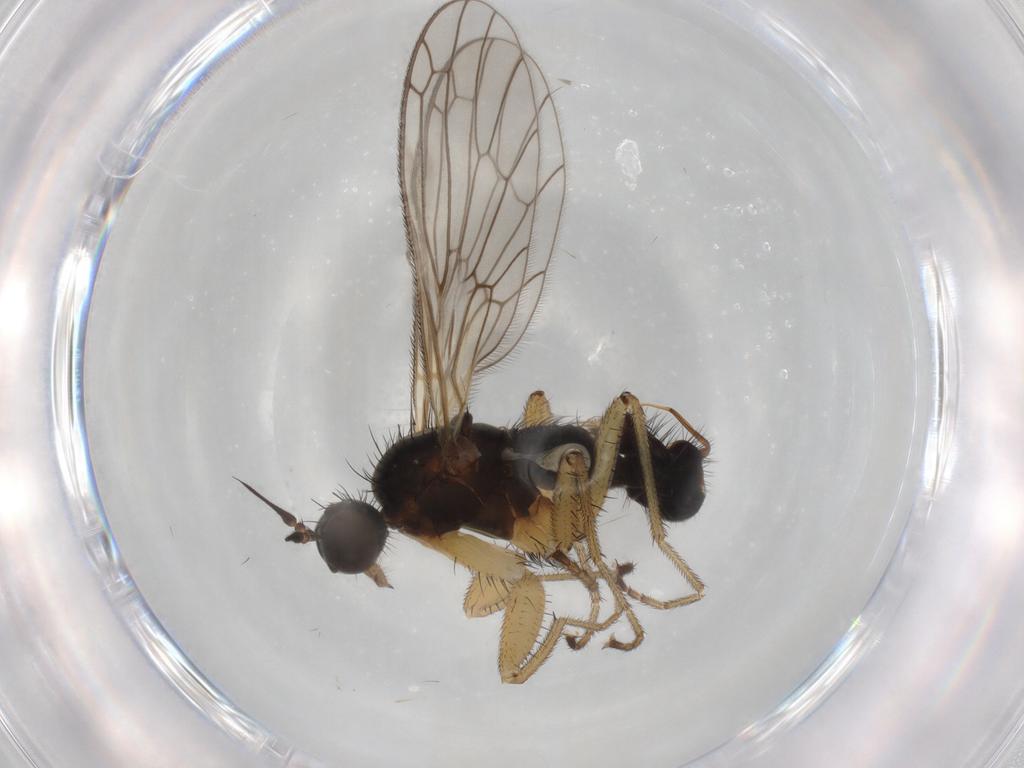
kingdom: Animalia
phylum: Arthropoda
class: Insecta
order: Diptera
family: Empididae
